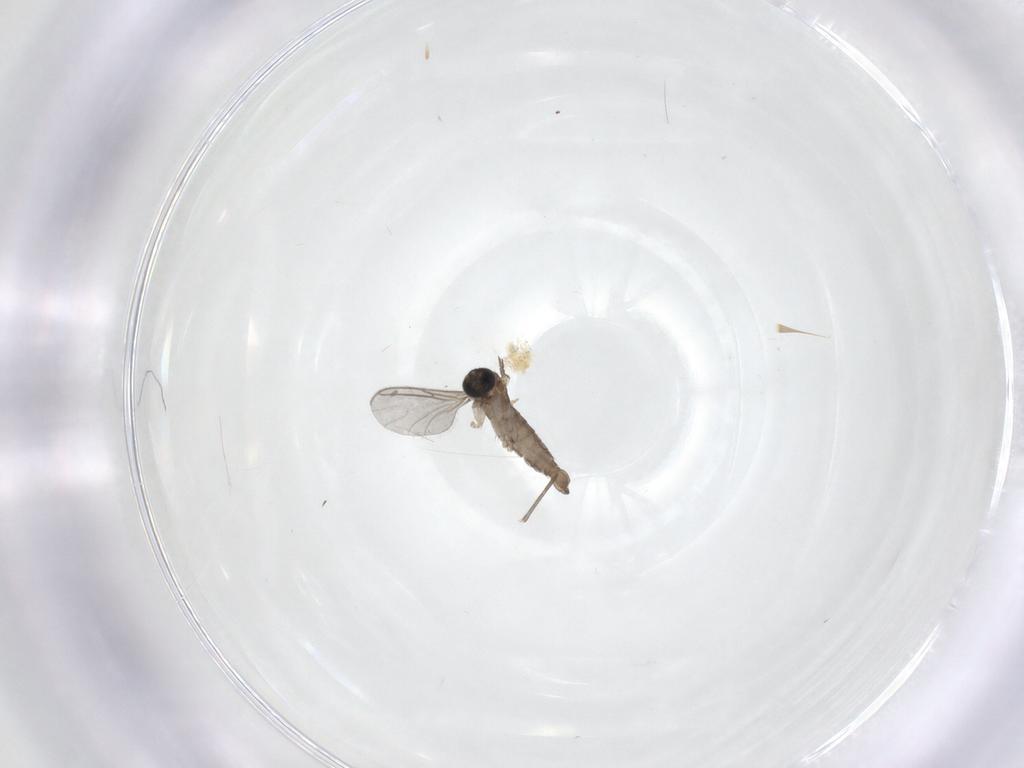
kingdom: Animalia
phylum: Arthropoda
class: Insecta
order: Diptera
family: Sciaridae
